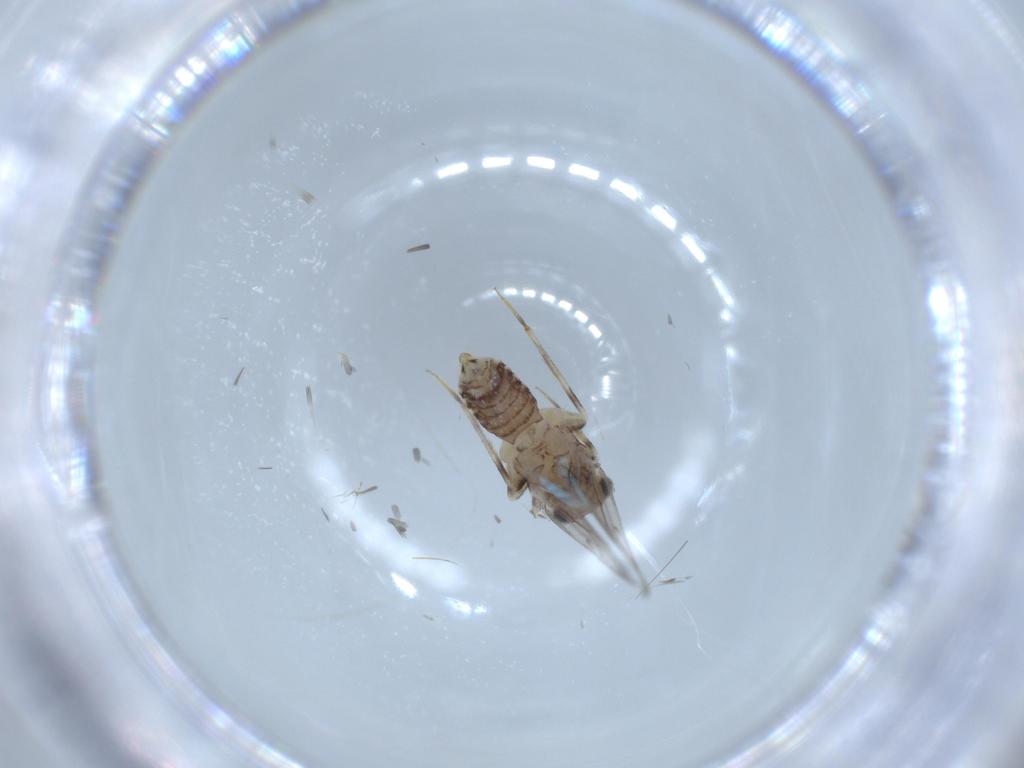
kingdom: Animalia
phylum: Arthropoda
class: Insecta
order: Psocodea
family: Lepidopsocidae
